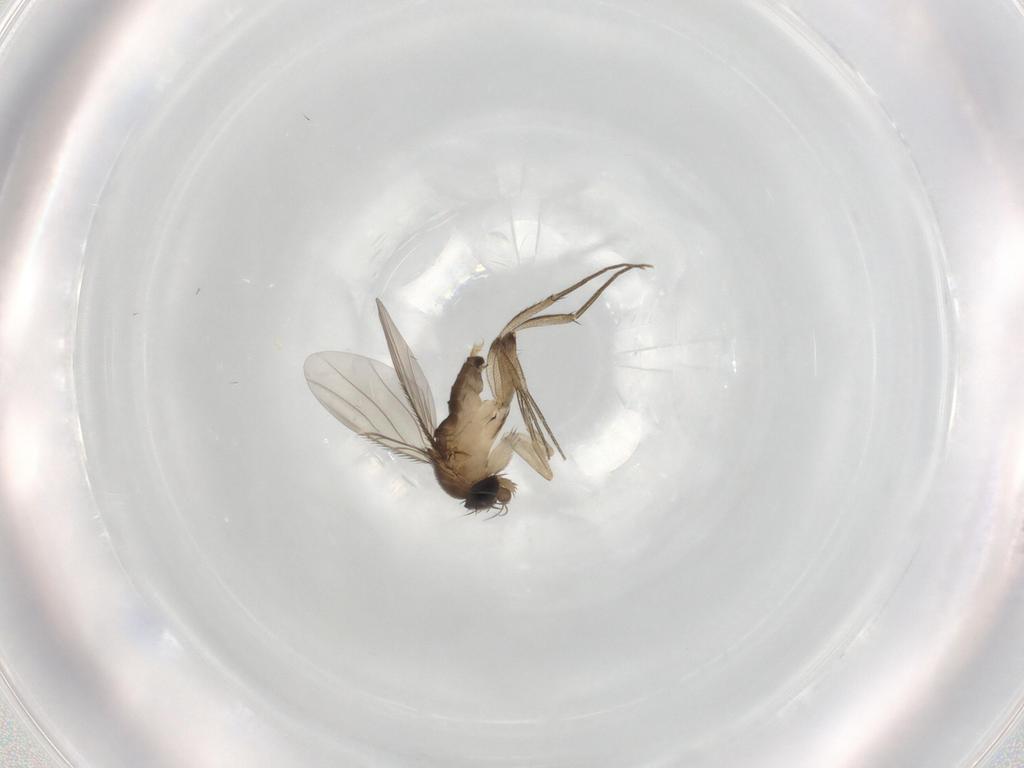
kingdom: Animalia
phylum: Arthropoda
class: Insecta
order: Diptera
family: Phoridae
